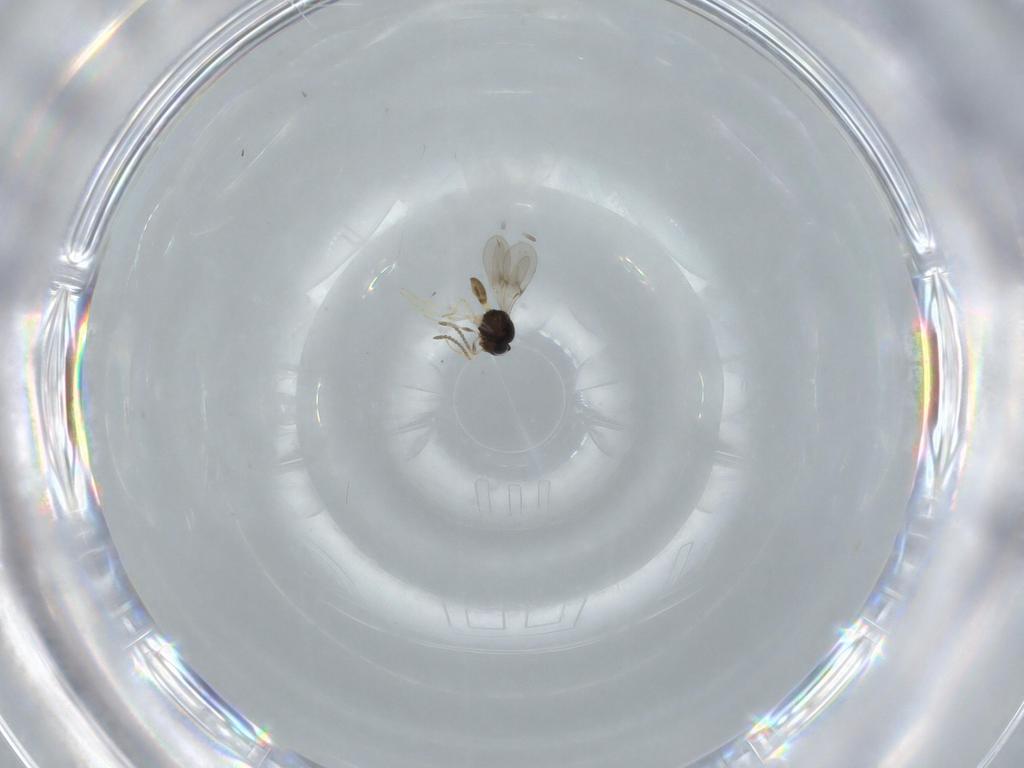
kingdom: Animalia
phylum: Arthropoda
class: Insecta
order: Hymenoptera
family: Scelionidae
